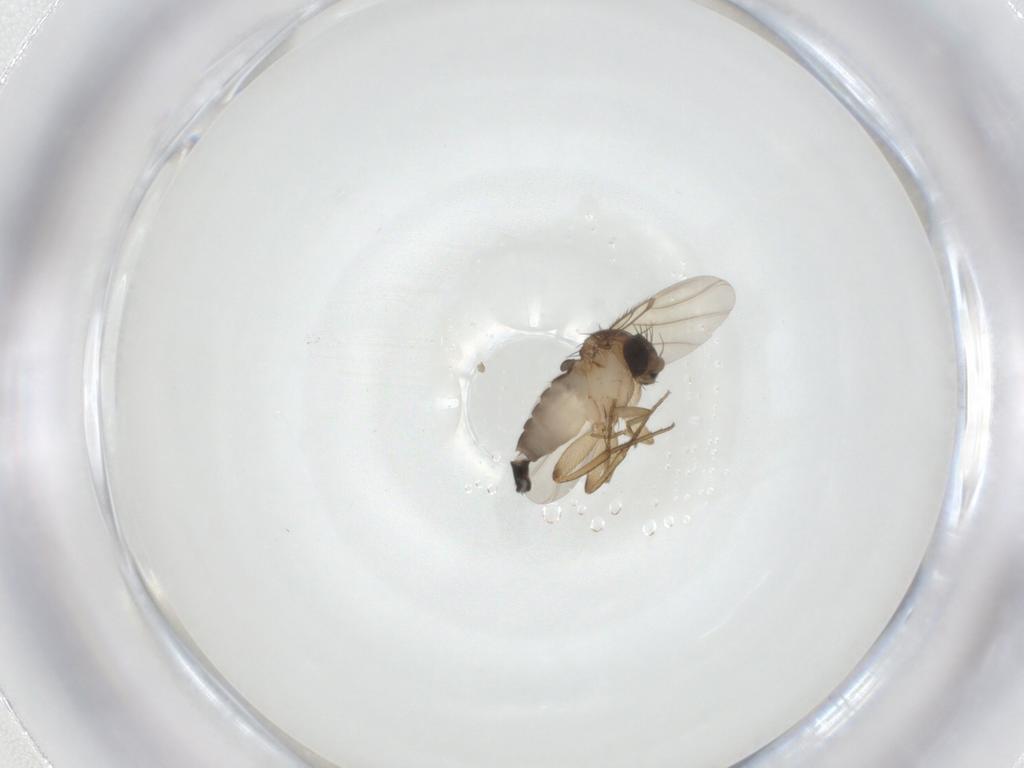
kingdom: Animalia
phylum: Arthropoda
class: Insecta
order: Diptera
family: Phoridae
